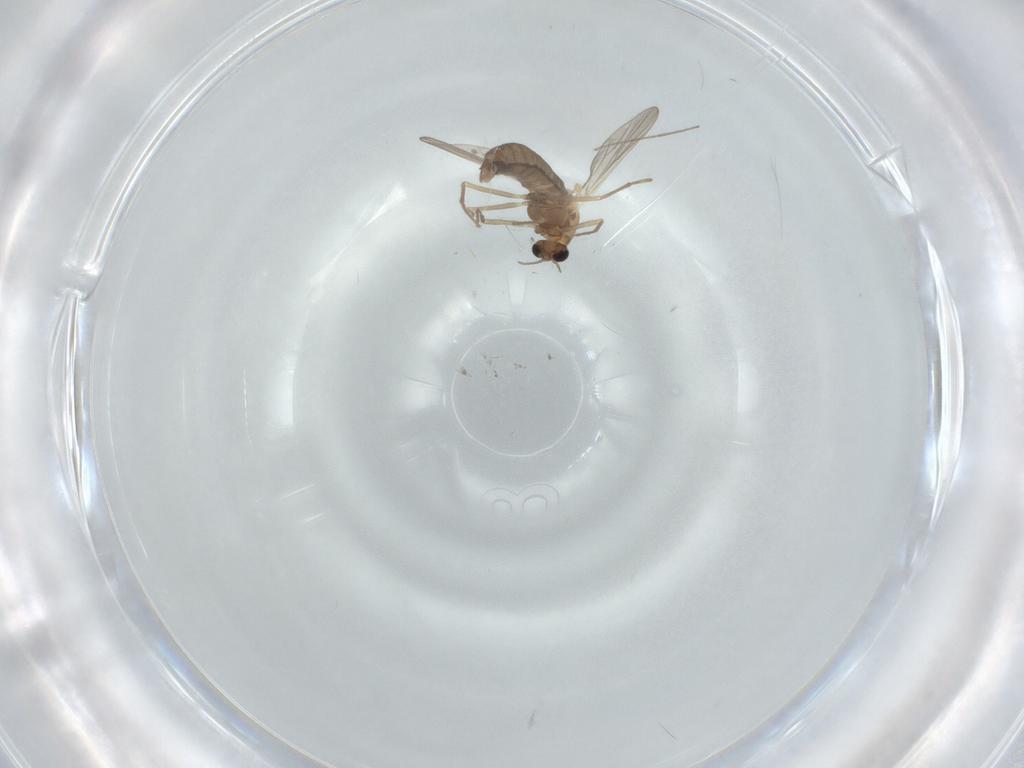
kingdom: Animalia
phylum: Arthropoda
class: Insecta
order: Diptera
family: Chironomidae
